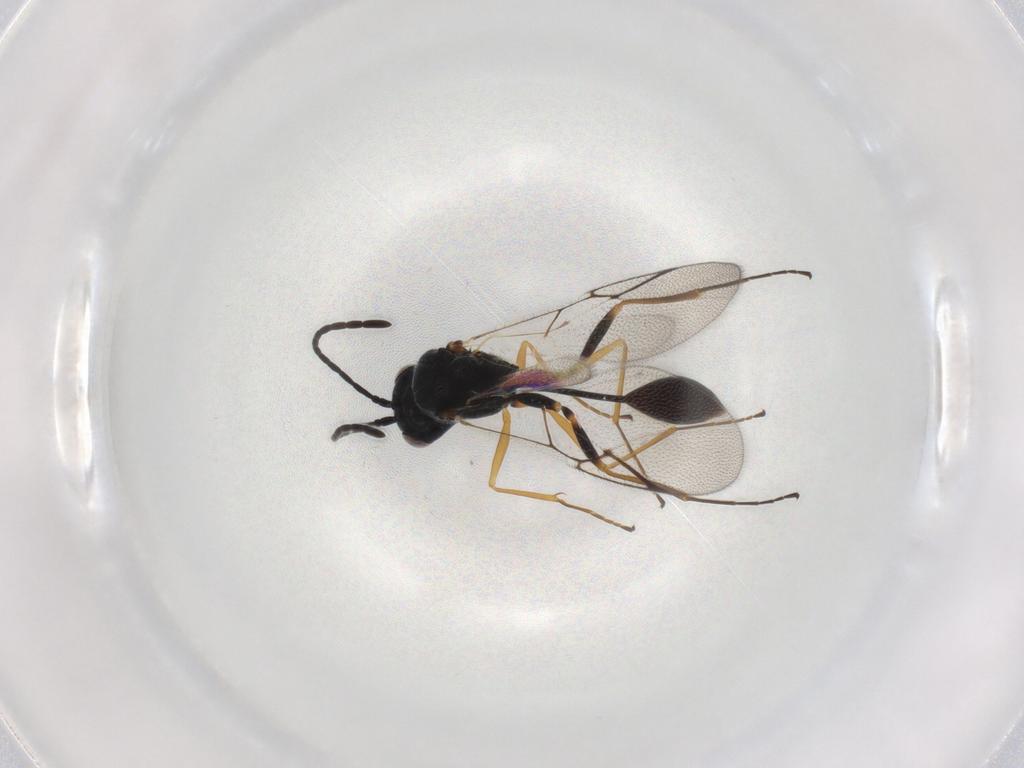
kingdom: Animalia
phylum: Arthropoda
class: Insecta
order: Hymenoptera
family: Figitidae
